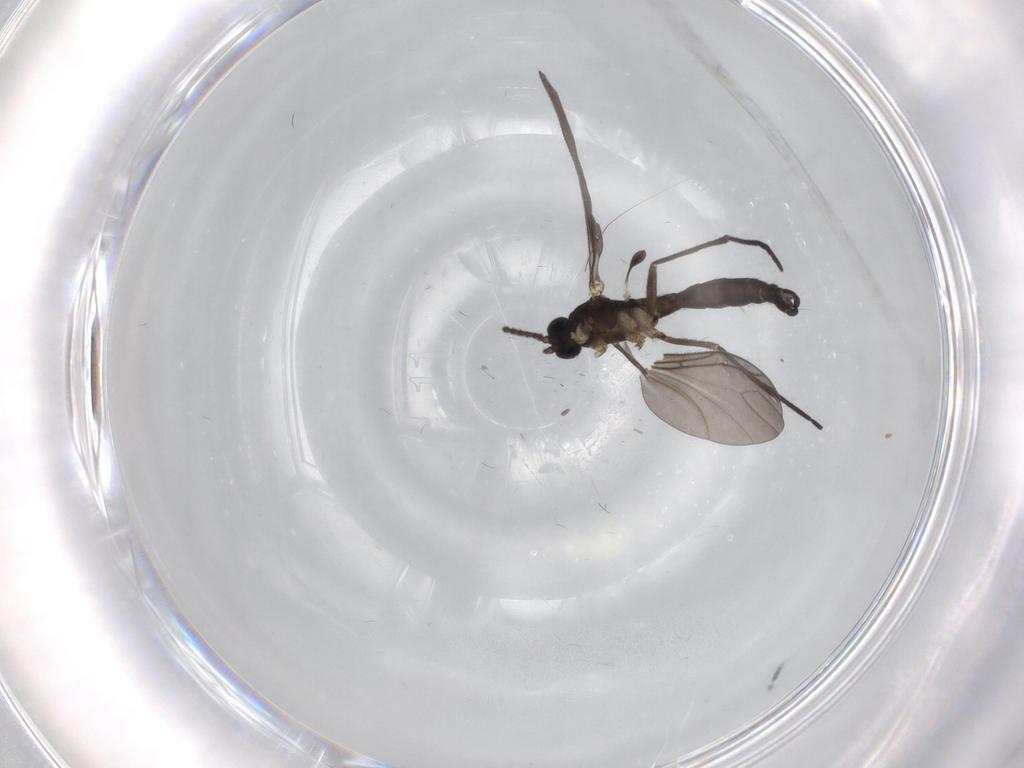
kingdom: Animalia
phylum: Arthropoda
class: Insecta
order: Diptera
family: Sciaridae
